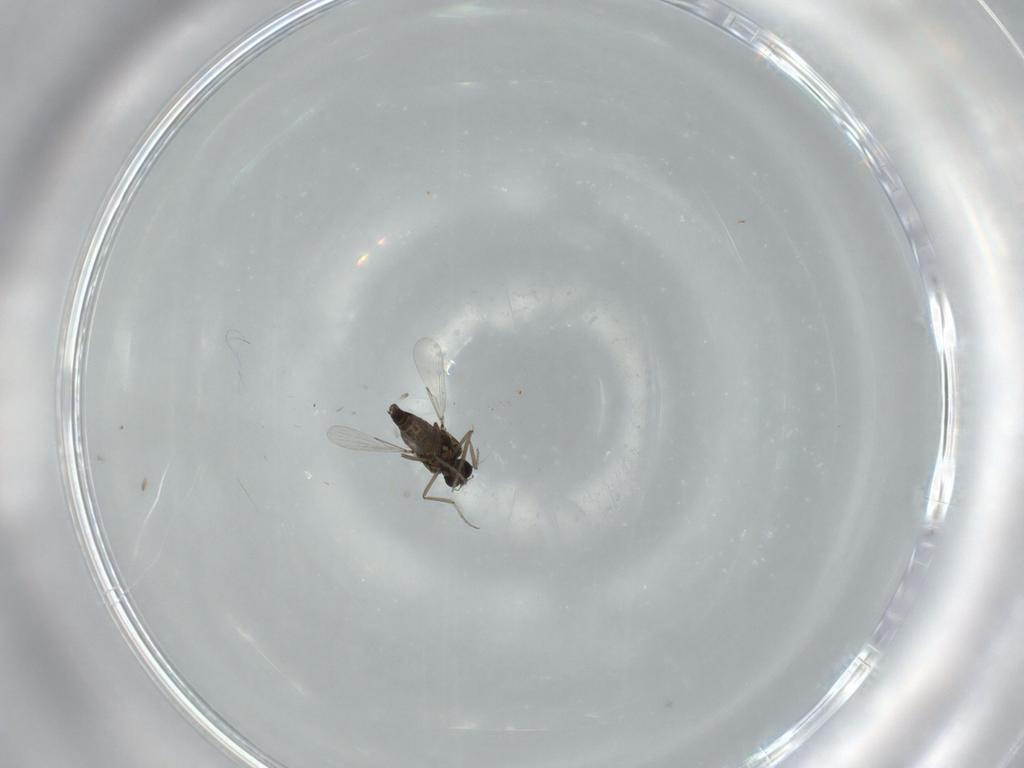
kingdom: Animalia
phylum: Arthropoda
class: Insecta
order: Diptera
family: Ceratopogonidae
